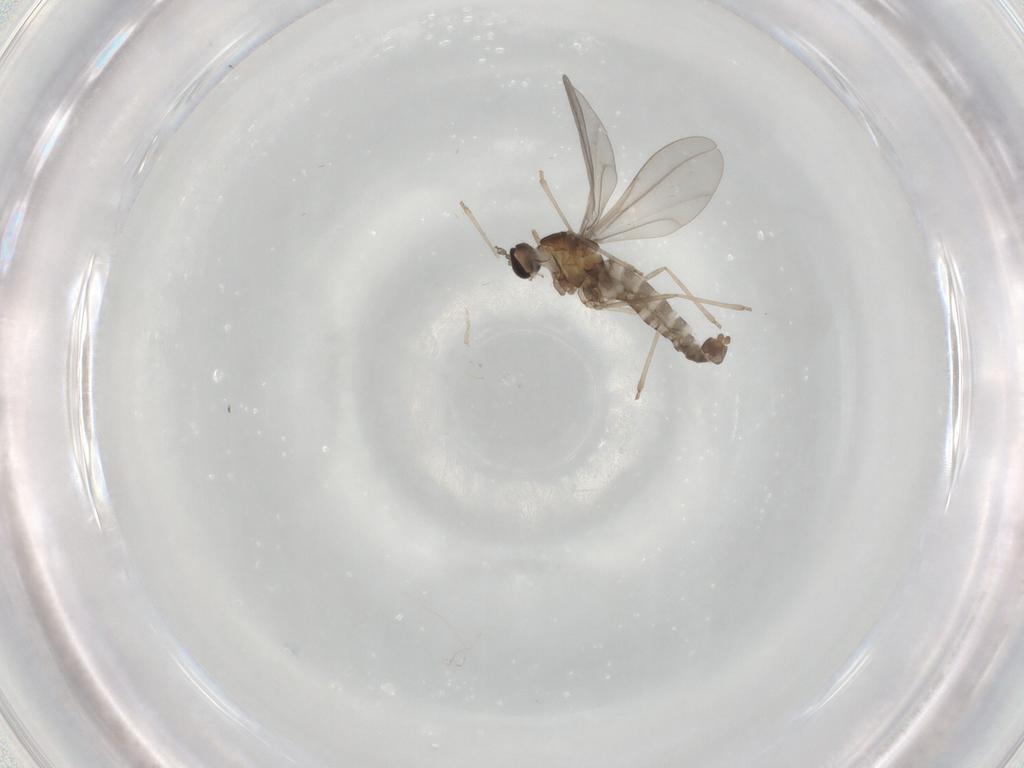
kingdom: Animalia
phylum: Arthropoda
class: Insecta
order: Diptera
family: Cecidomyiidae
